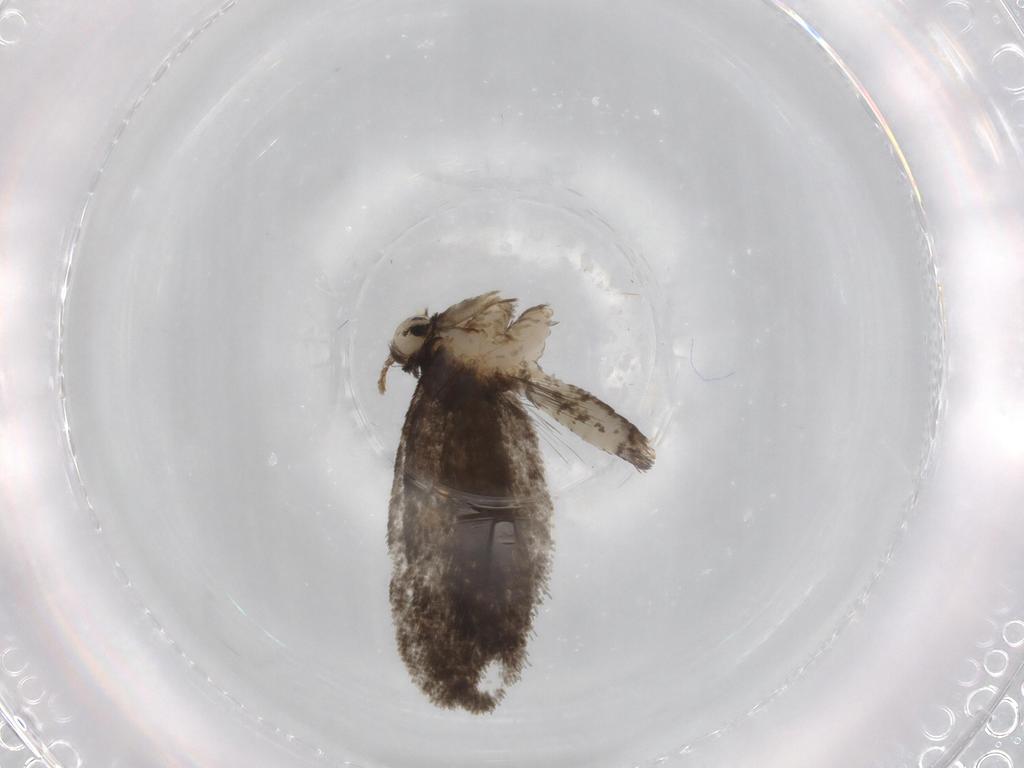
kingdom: Animalia
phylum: Arthropoda
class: Insecta
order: Lepidoptera
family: Psychidae
